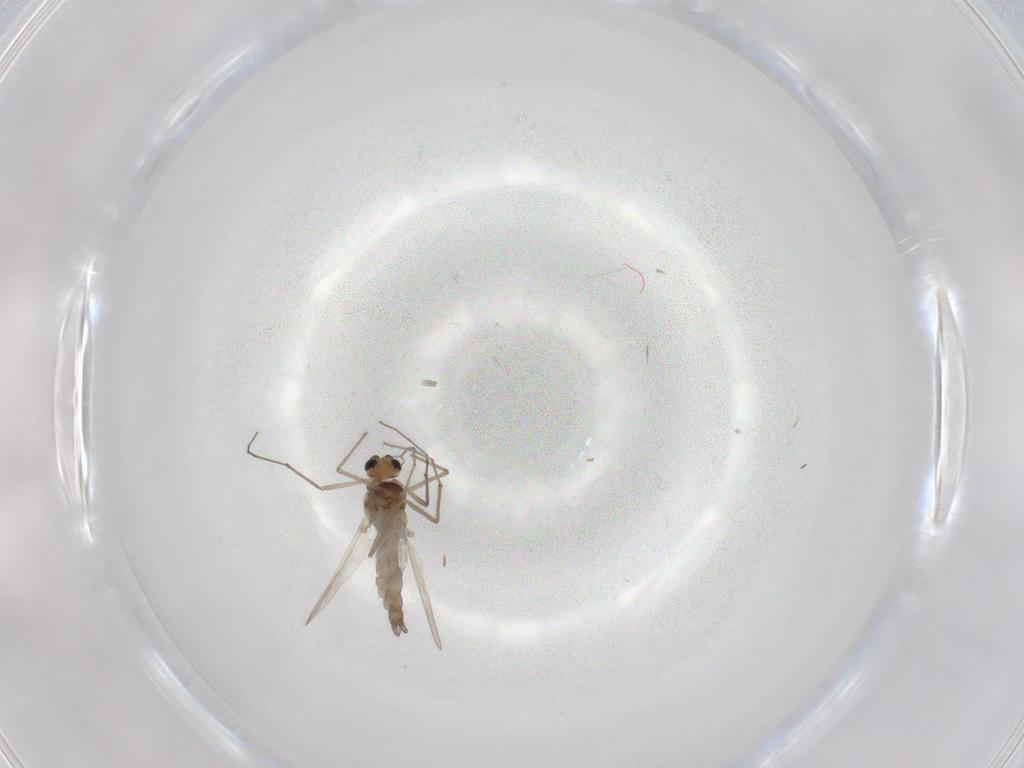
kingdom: Animalia
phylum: Arthropoda
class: Insecta
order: Diptera
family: Chironomidae
